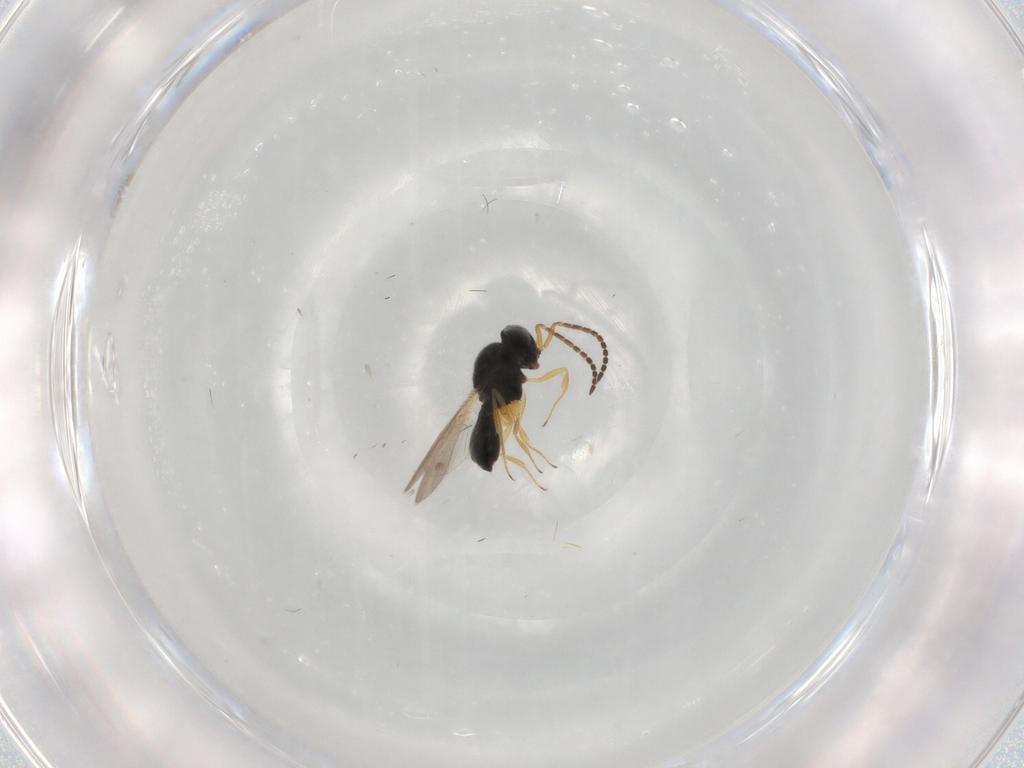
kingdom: Animalia
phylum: Arthropoda
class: Insecta
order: Hymenoptera
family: Scelionidae
